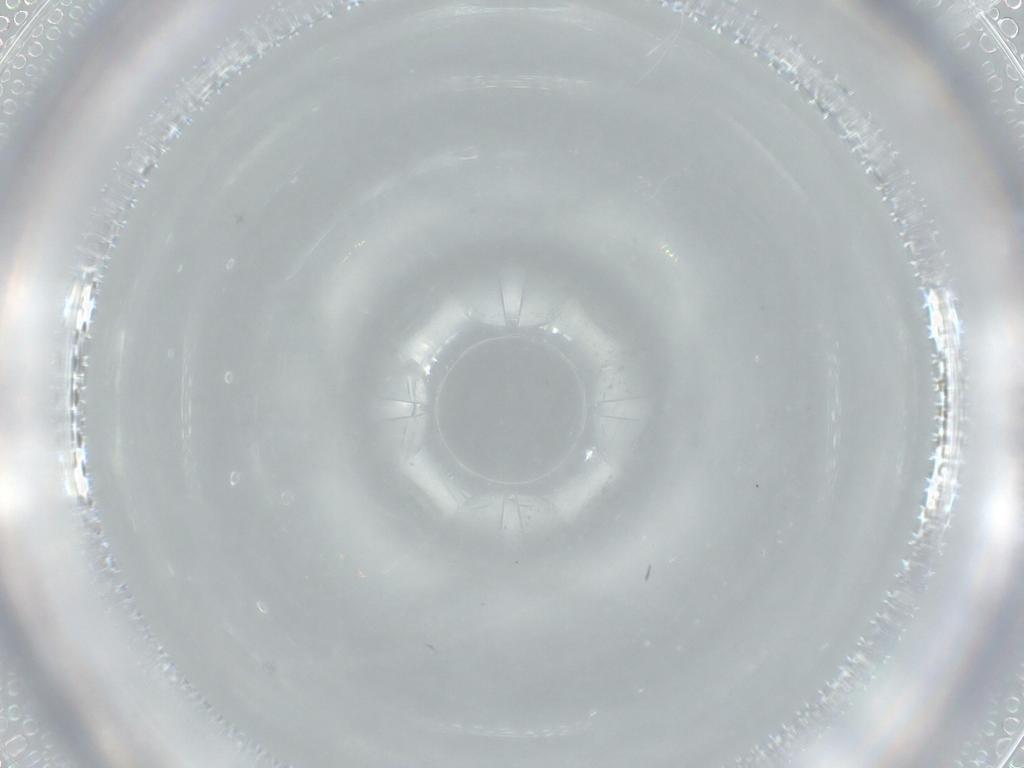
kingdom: Animalia
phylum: Arthropoda
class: Insecta
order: Hymenoptera
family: Trichogrammatidae
